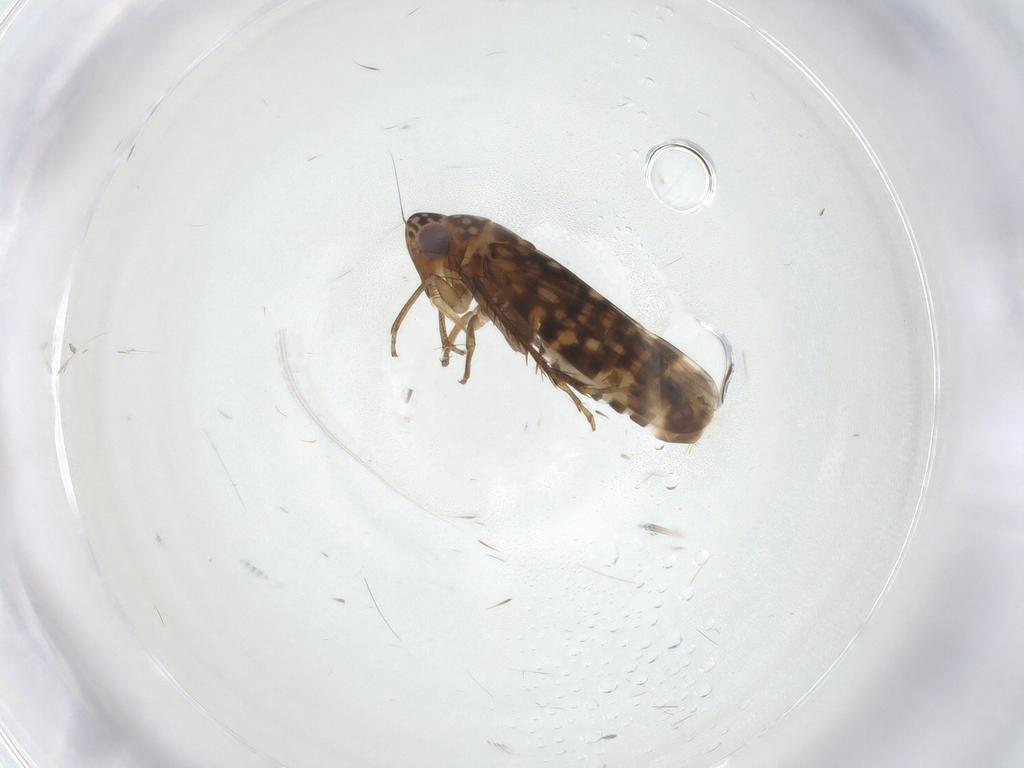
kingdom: Animalia
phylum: Arthropoda
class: Insecta
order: Hemiptera
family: Cicadellidae
